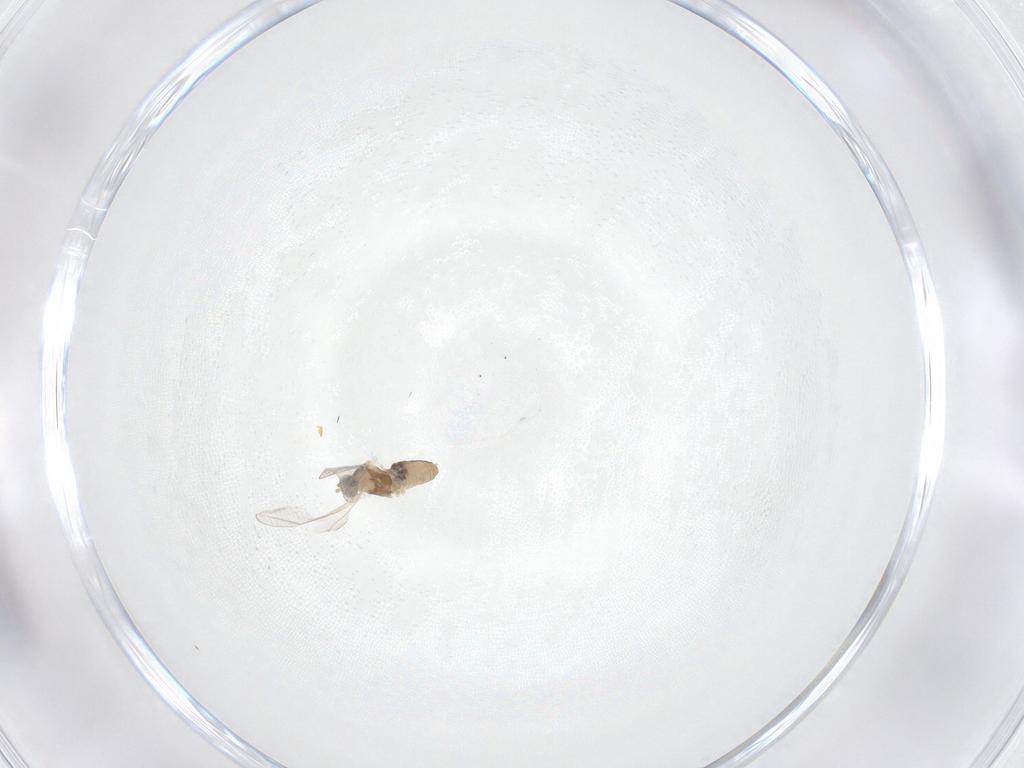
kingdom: Animalia
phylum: Arthropoda
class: Insecta
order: Diptera
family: Cecidomyiidae
